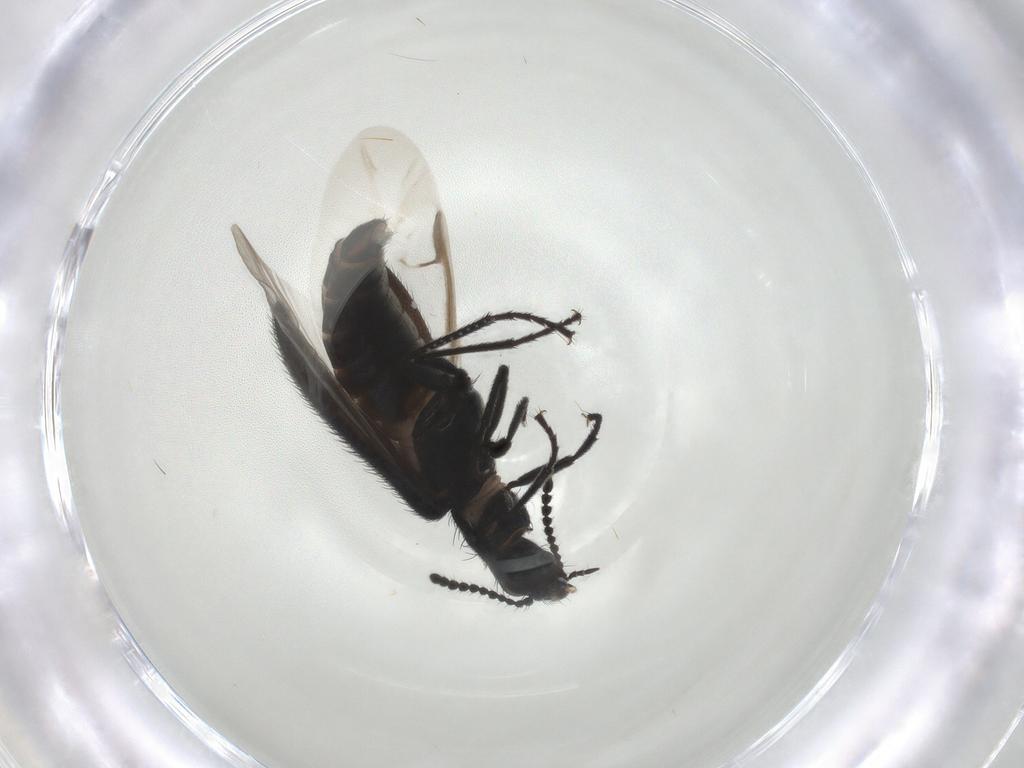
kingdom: Animalia
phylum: Arthropoda
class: Insecta
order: Coleoptera
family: Melyridae
